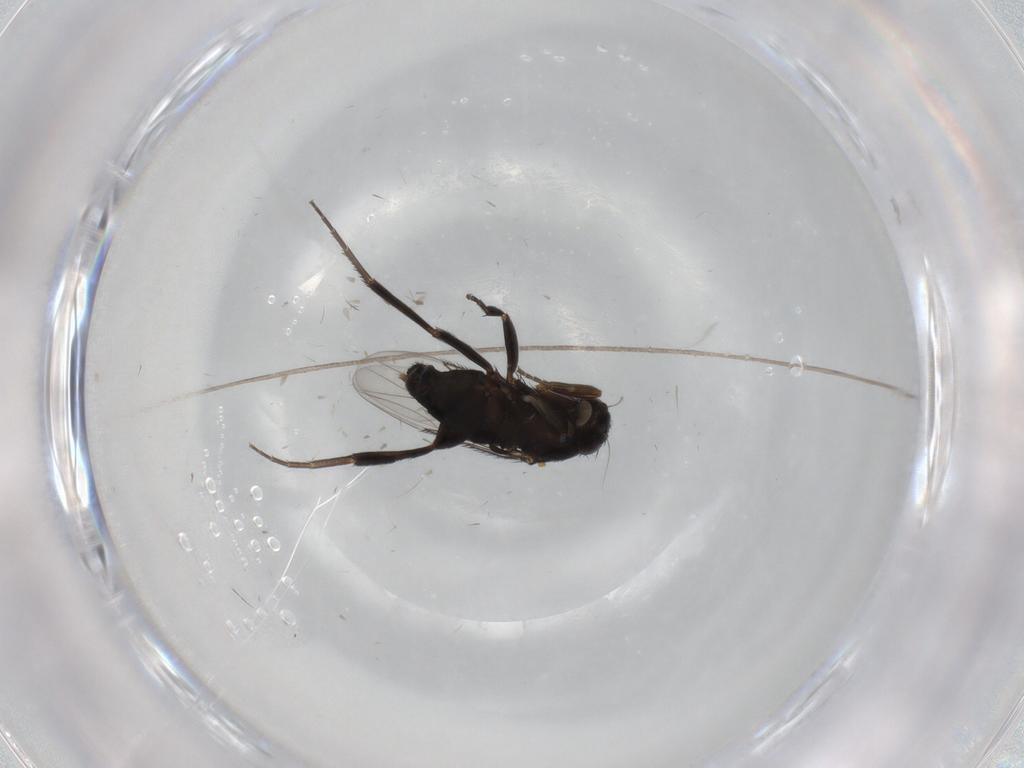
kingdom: Animalia
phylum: Arthropoda
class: Insecta
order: Diptera
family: Phoridae
